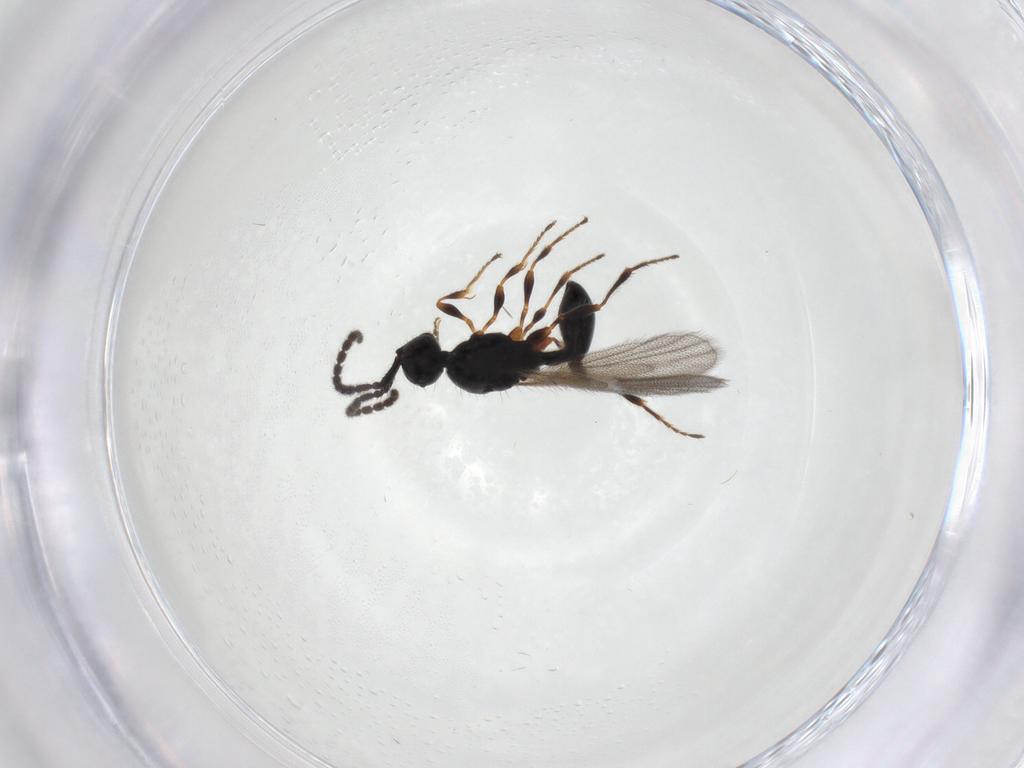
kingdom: Animalia
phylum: Arthropoda
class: Insecta
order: Hymenoptera
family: Diapriidae
